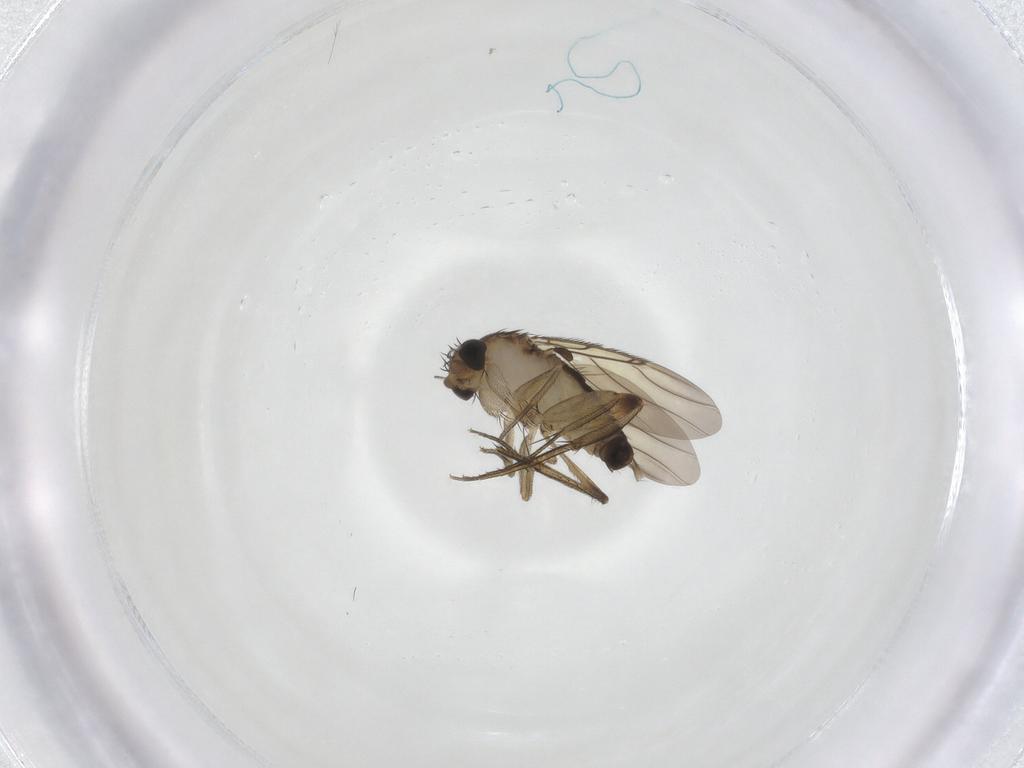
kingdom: Animalia
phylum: Arthropoda
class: Insecta
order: Diptera
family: Phoridae
